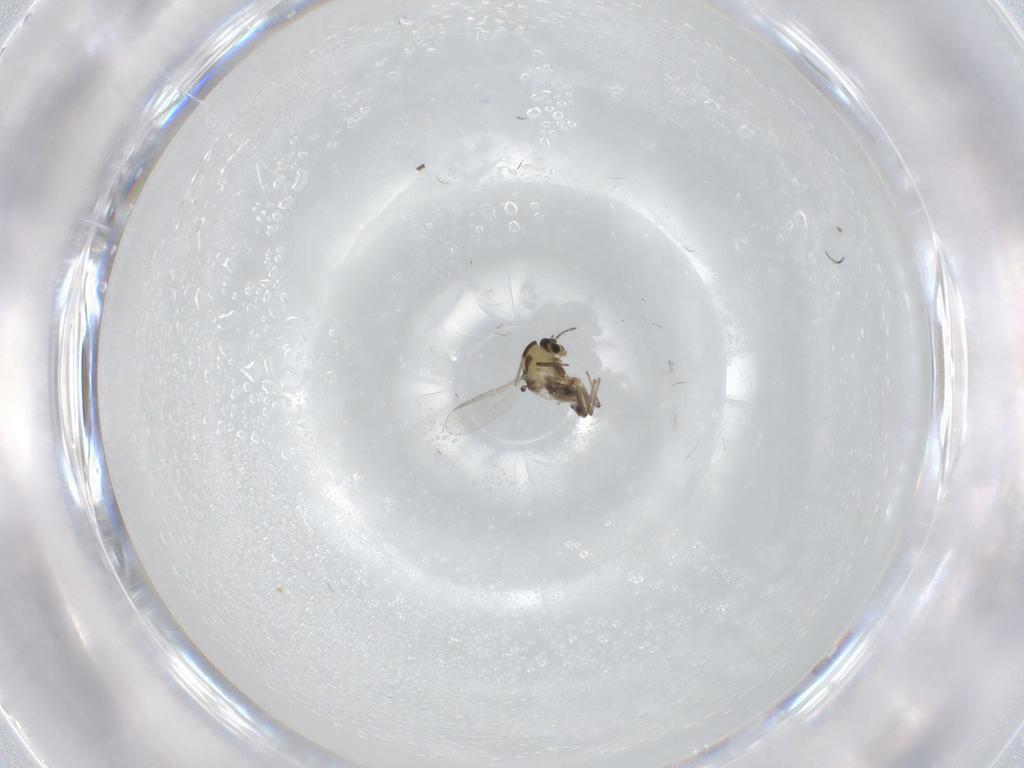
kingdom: Animalia
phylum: Arthropoda
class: Insecta
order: Diptera
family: Chironomidae
